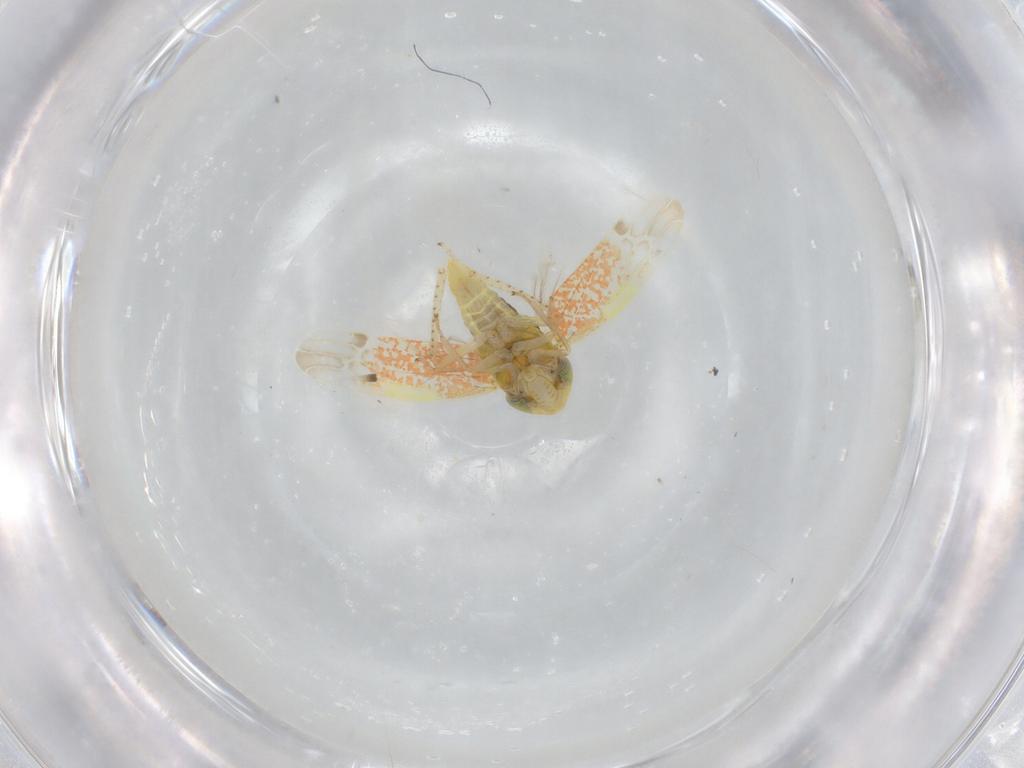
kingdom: Animalia
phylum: Arthropoda
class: Insecta
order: Hemiptera
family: Cicadellidae
